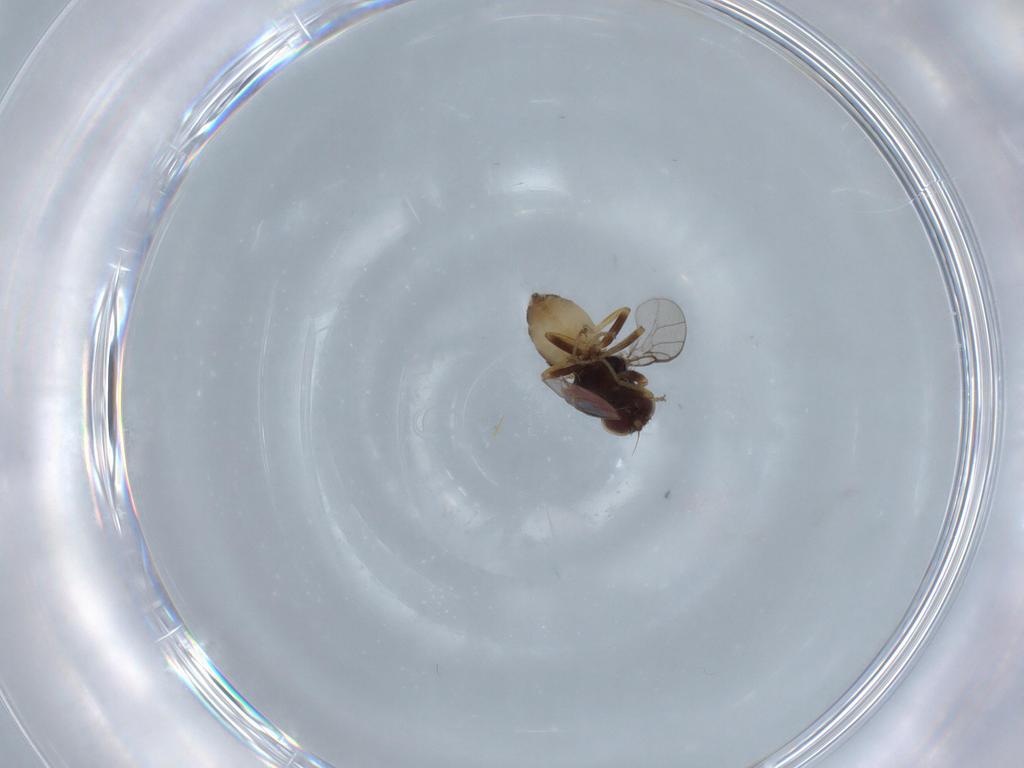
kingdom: Animalia
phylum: Arthropoda
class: Insecta
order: Diptera
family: Chloropidae
